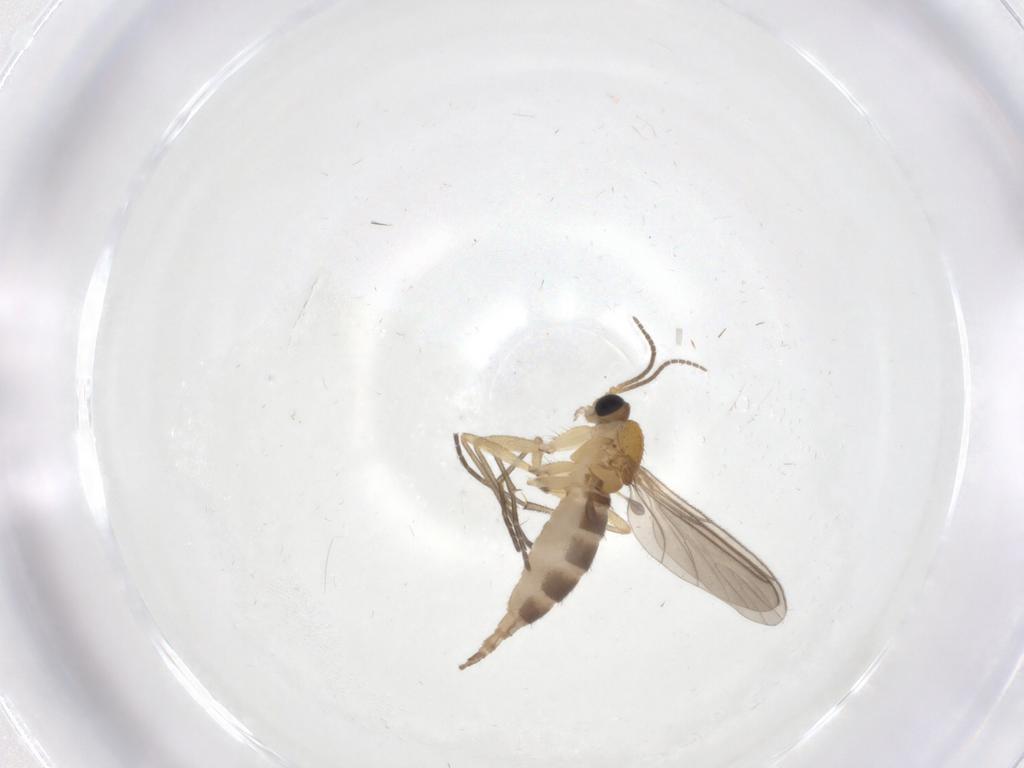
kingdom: Animalia
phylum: Arthropoda
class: Insecta
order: Diptera
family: Sciaridae
